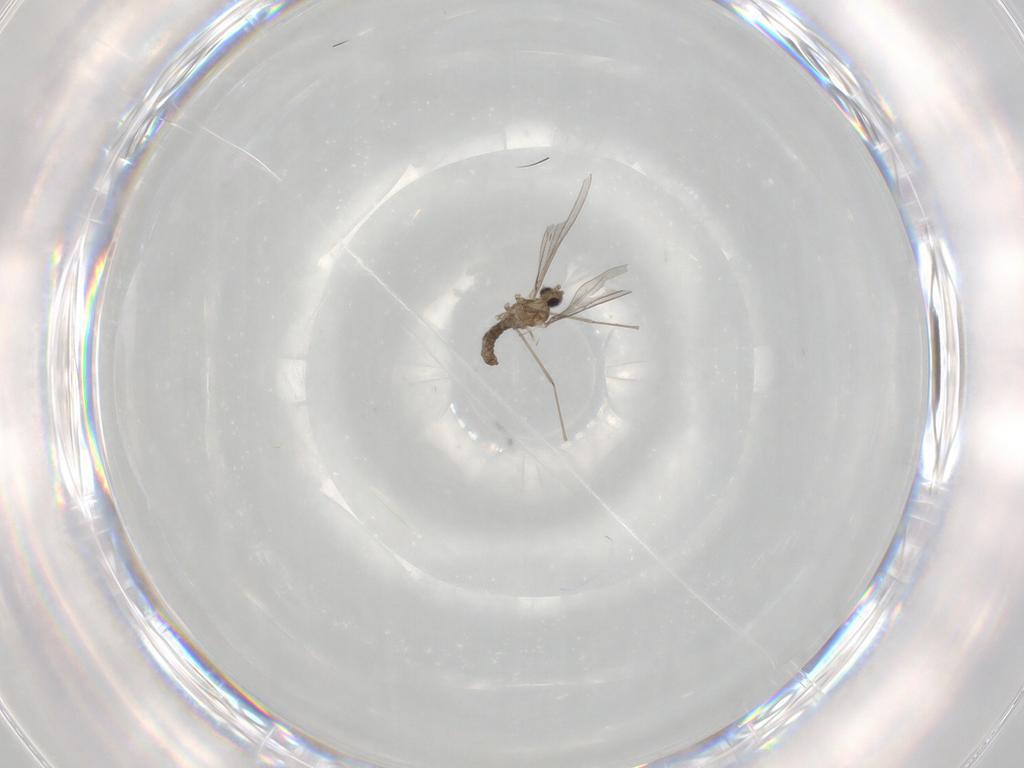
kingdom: Animalia
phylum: Arthropoda
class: Insecta
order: Diptera
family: Cecidomyiidae
